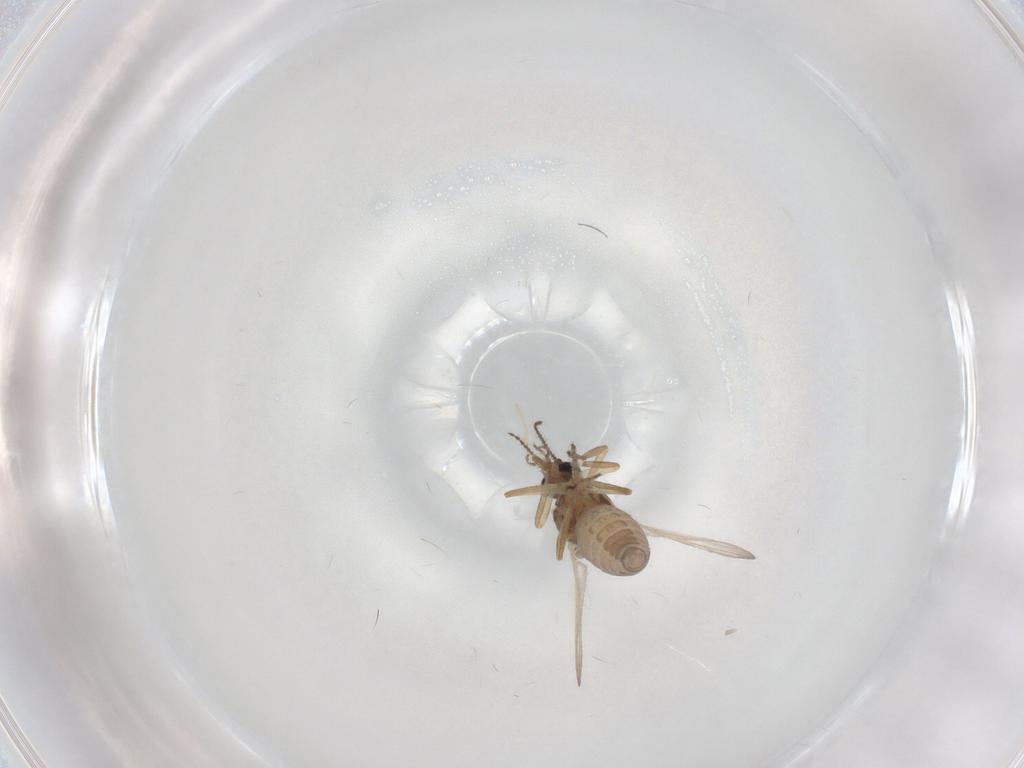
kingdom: Animalia
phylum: Arthropoda
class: Insecta
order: Diptera
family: Ceratopogonidae
